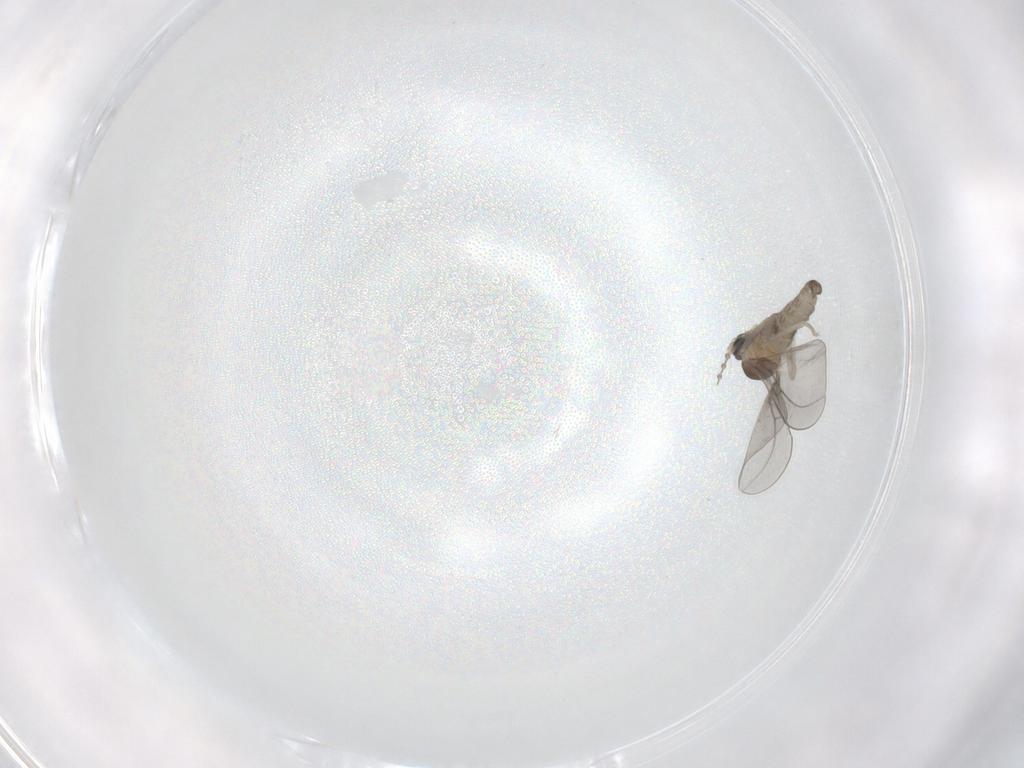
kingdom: Animalia
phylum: Arthropoda
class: Insecta
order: Diptera
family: Cecidomyiidae
